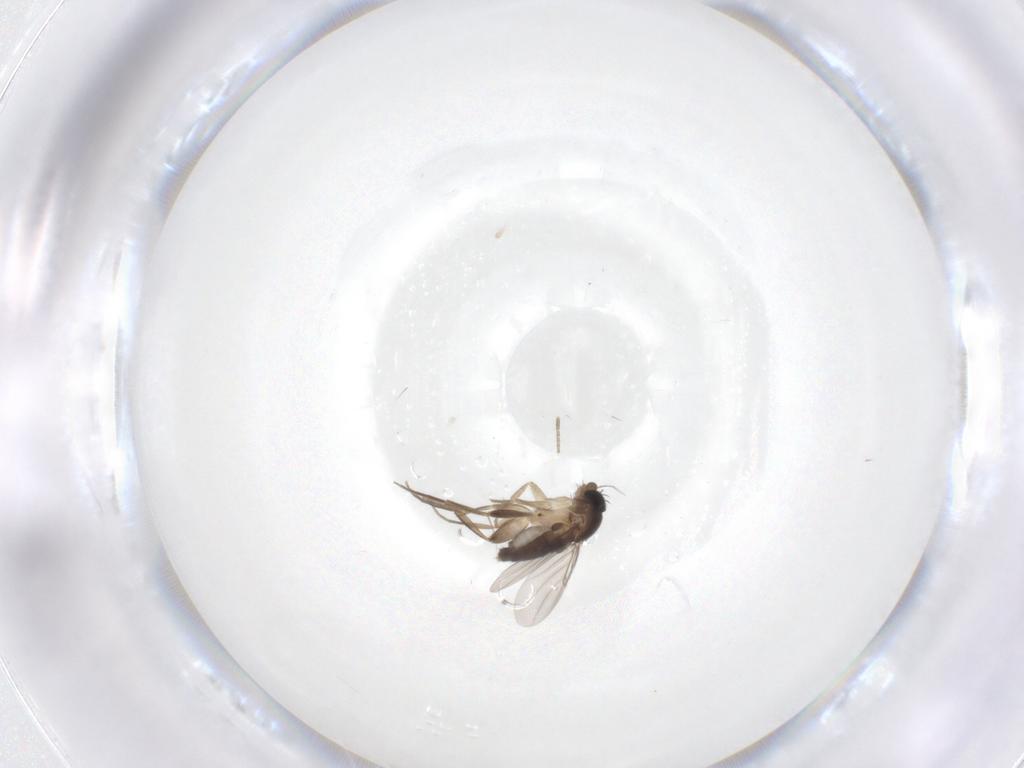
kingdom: Animalia
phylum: Arthropoda
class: Insecta
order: Diptera
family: Phoridae
